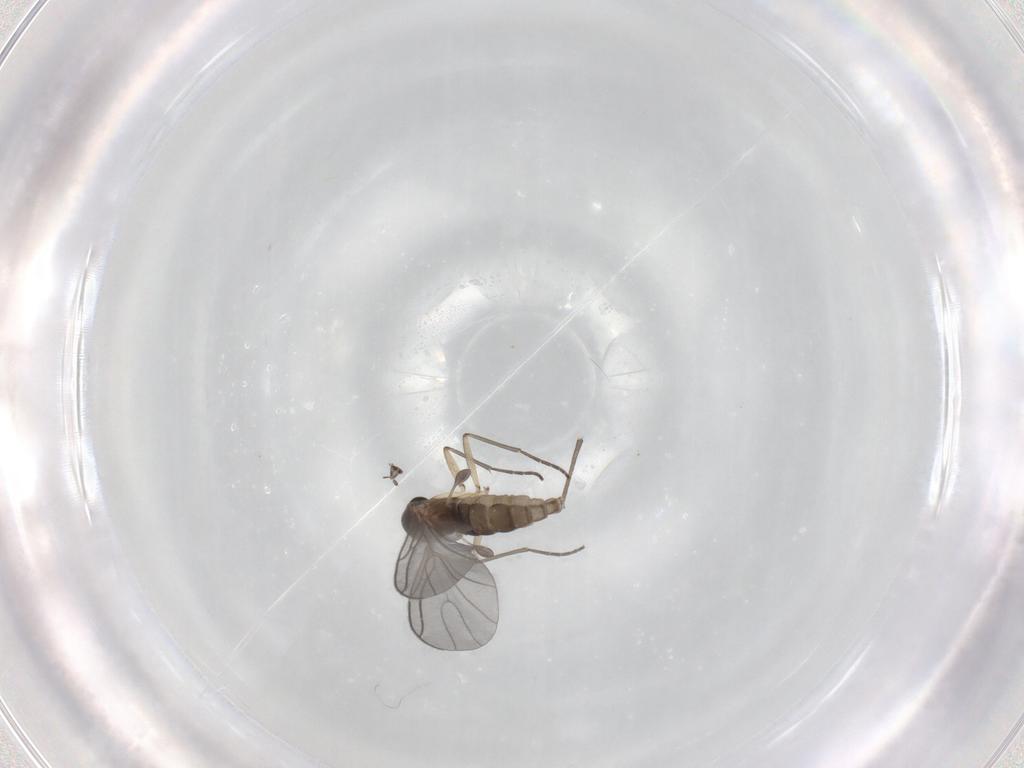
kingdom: Animalia
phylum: Arthropoda
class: Insecta
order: Diptera
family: Sciaridae
